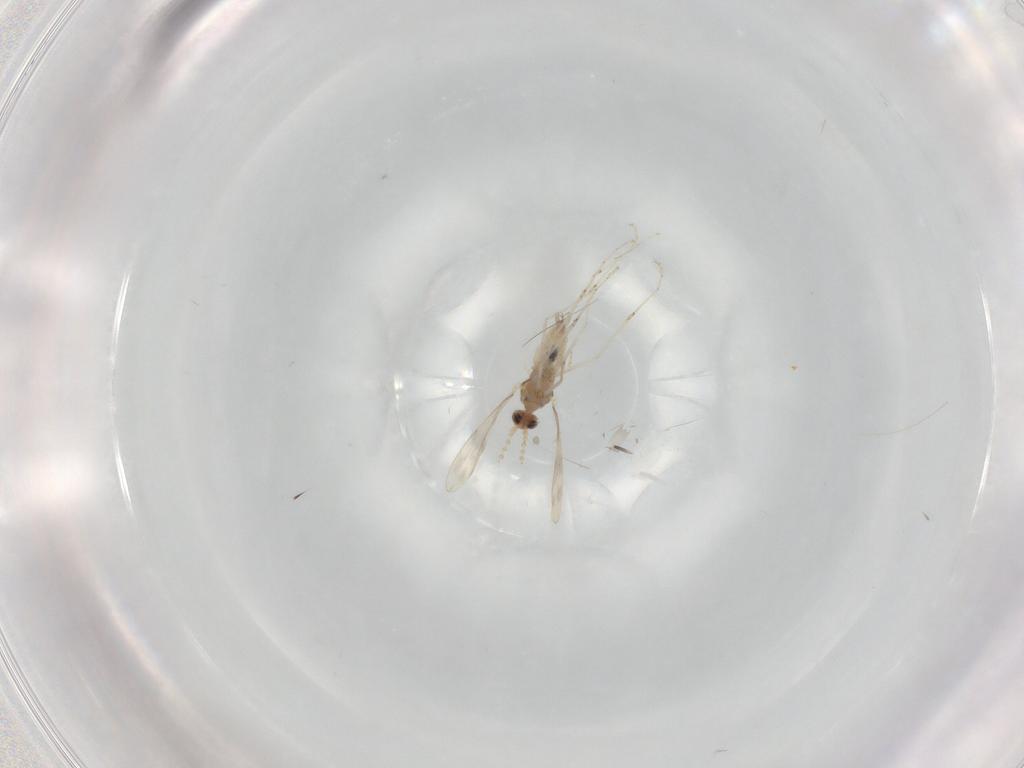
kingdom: Animalia
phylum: Arthropoda
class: Insecta
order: Diptera
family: Cecidomyiidae
